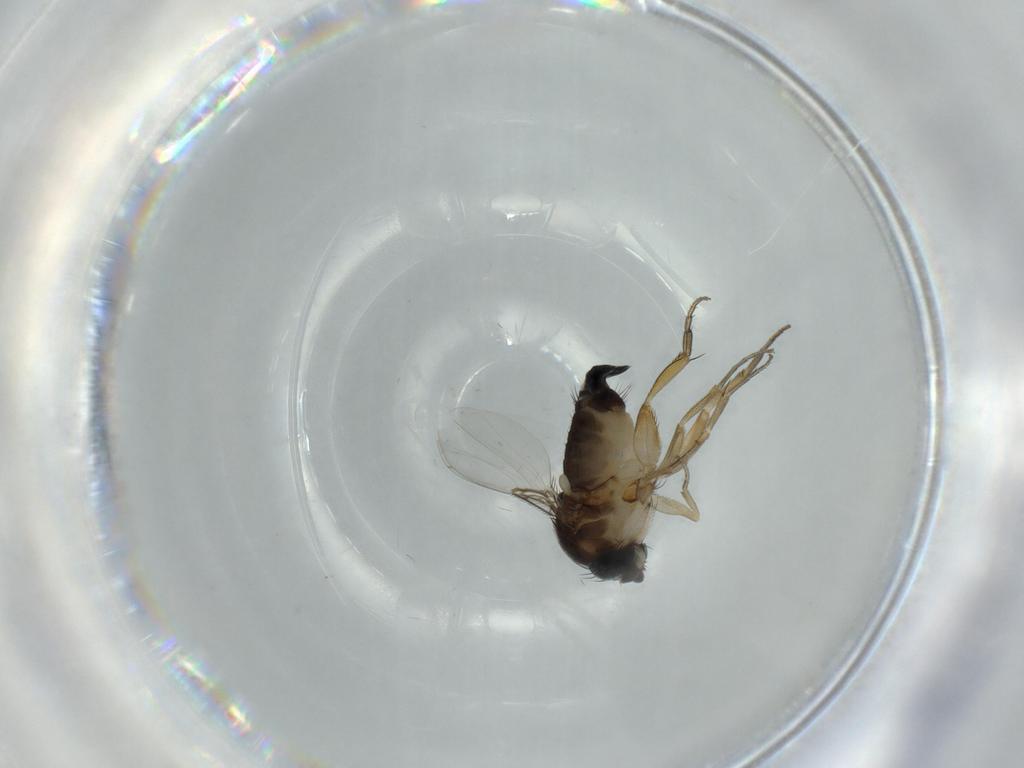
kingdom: Animalia
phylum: Arthropoda
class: Insecta
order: Diptera
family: Phoridae
